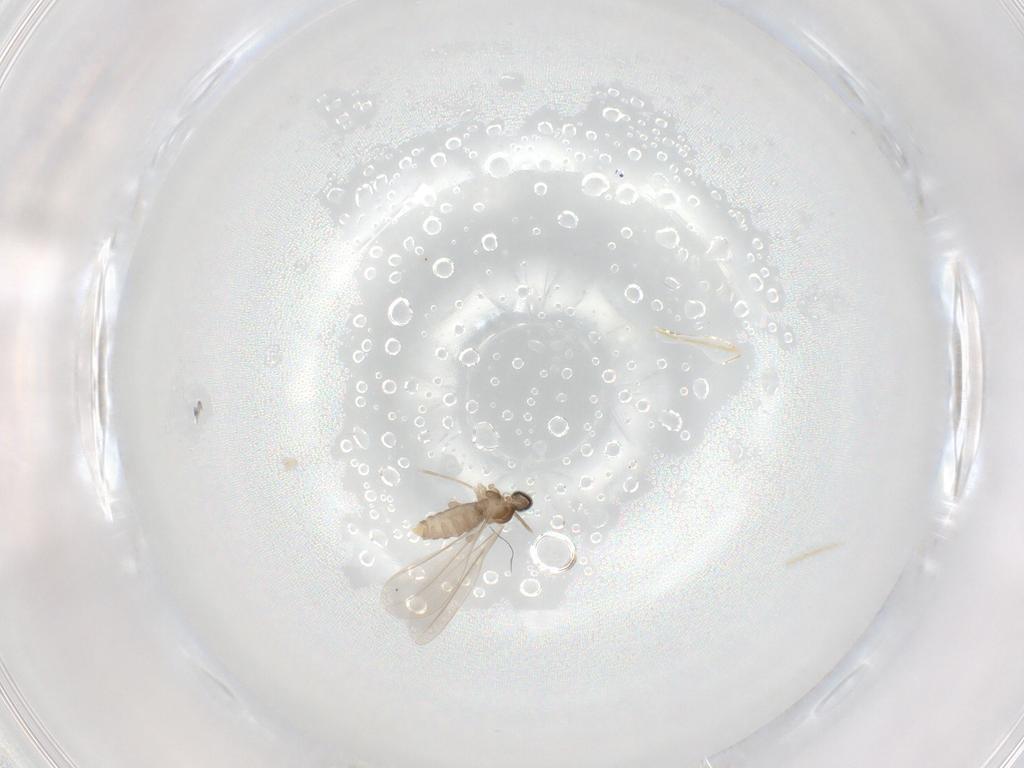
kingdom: Animalia
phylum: Arthropoda
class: Insecta
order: Diptera
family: Cecidomyiidae
